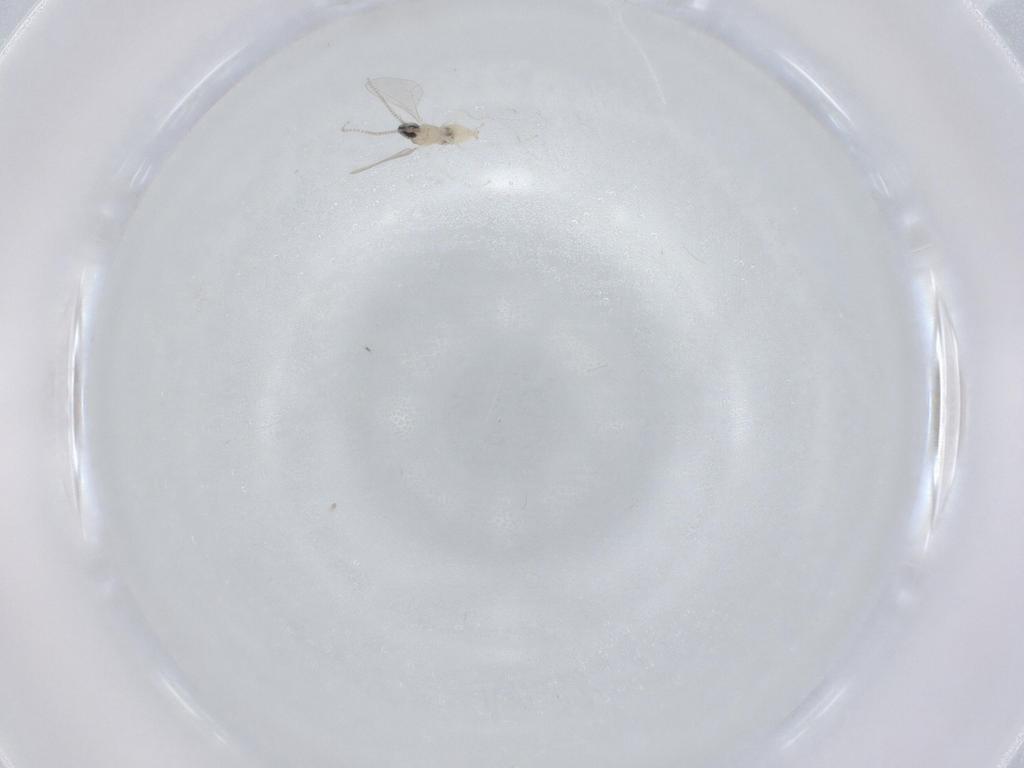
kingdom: Animalia
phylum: Arthropoda
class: Insecta
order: Diptera
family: Cecidomyiidae
